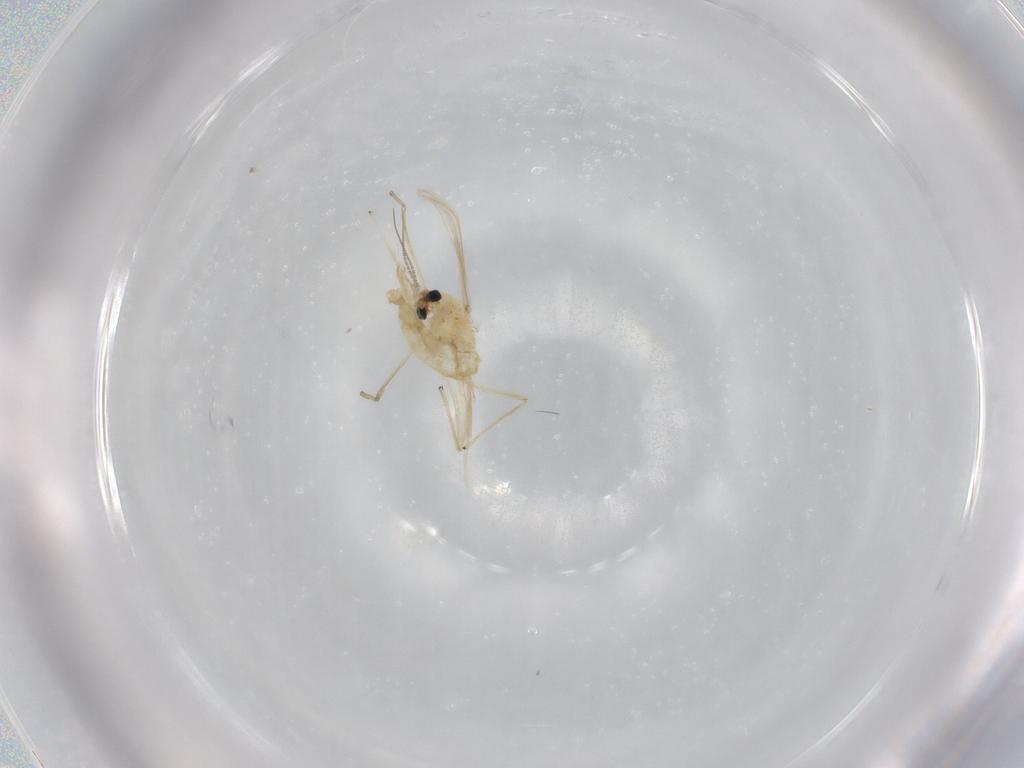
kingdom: Animalia
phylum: Arthropoda
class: Insecta
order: Diptera
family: Chironomidae
